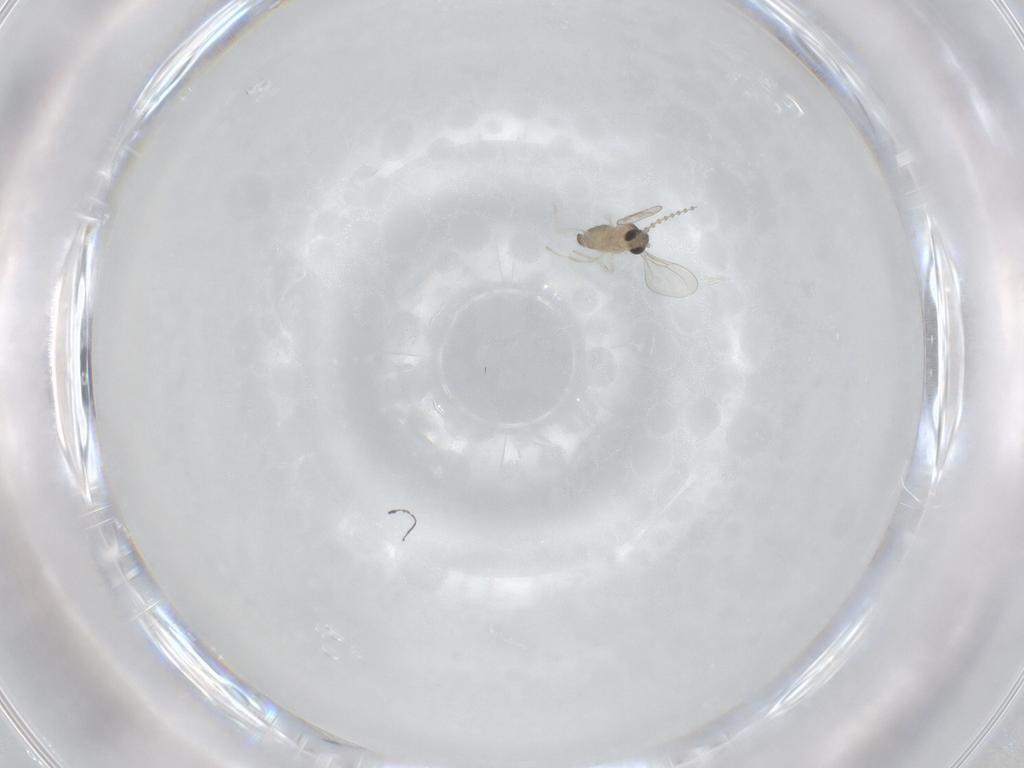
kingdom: Animalia
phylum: Arthropoda
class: Insecta
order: Diptera
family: Cecidomyiidae
